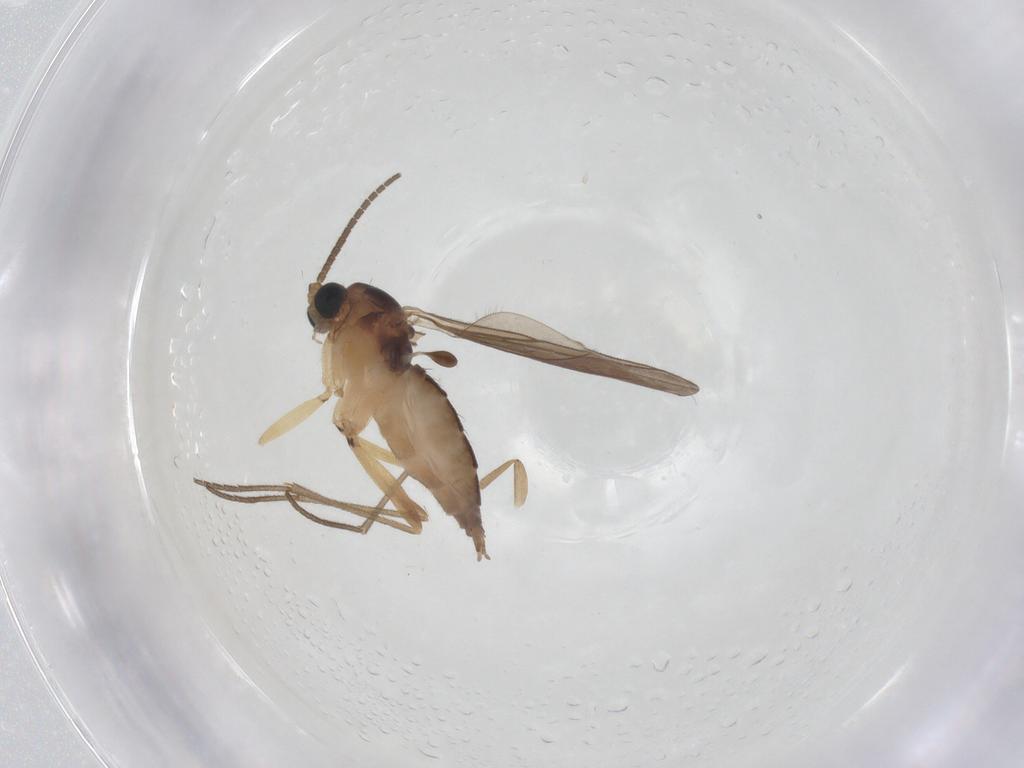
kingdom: Animalia
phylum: Arthropoda
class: Insecta
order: Diptera
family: Sciaridae
